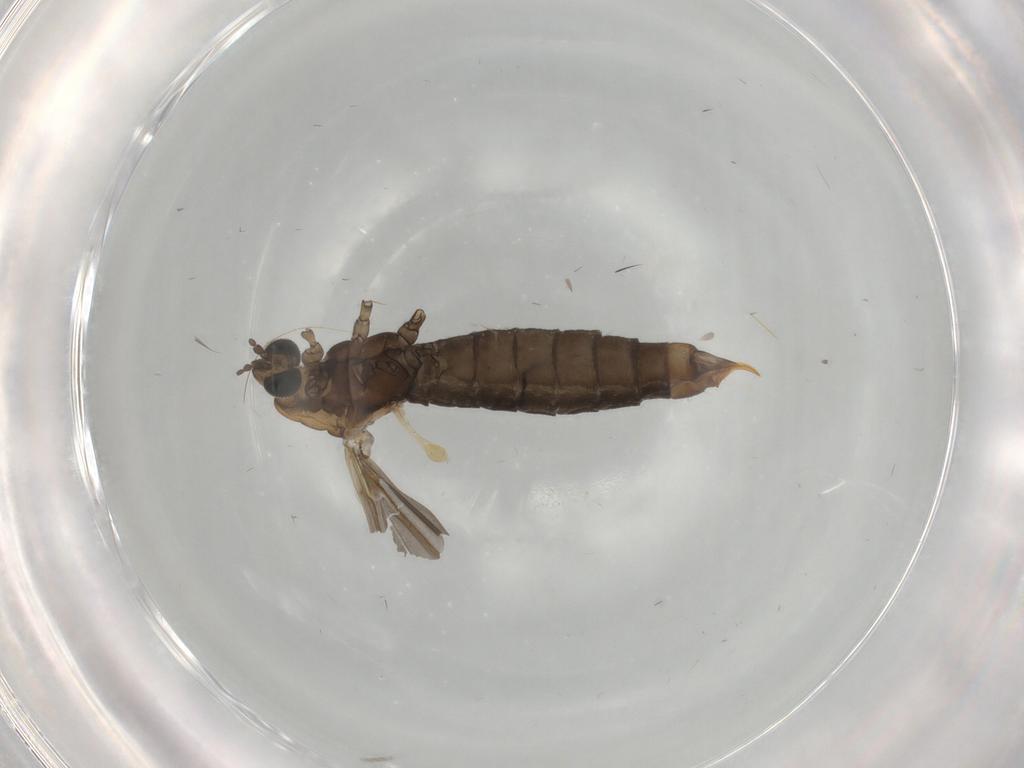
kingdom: Animalia
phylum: Arthropoda
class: Insecta
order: Diptera
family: Limoniidae
